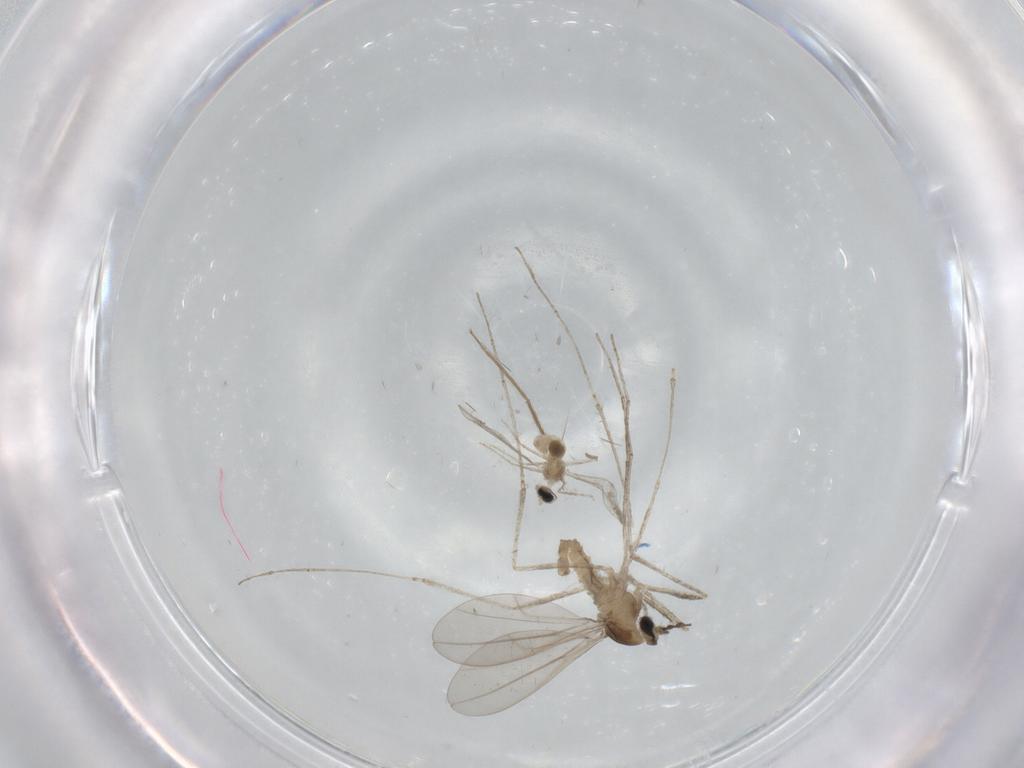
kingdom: Animalia
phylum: Arthropoda
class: Insecta
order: Diptera
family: Cecidomyiidae
